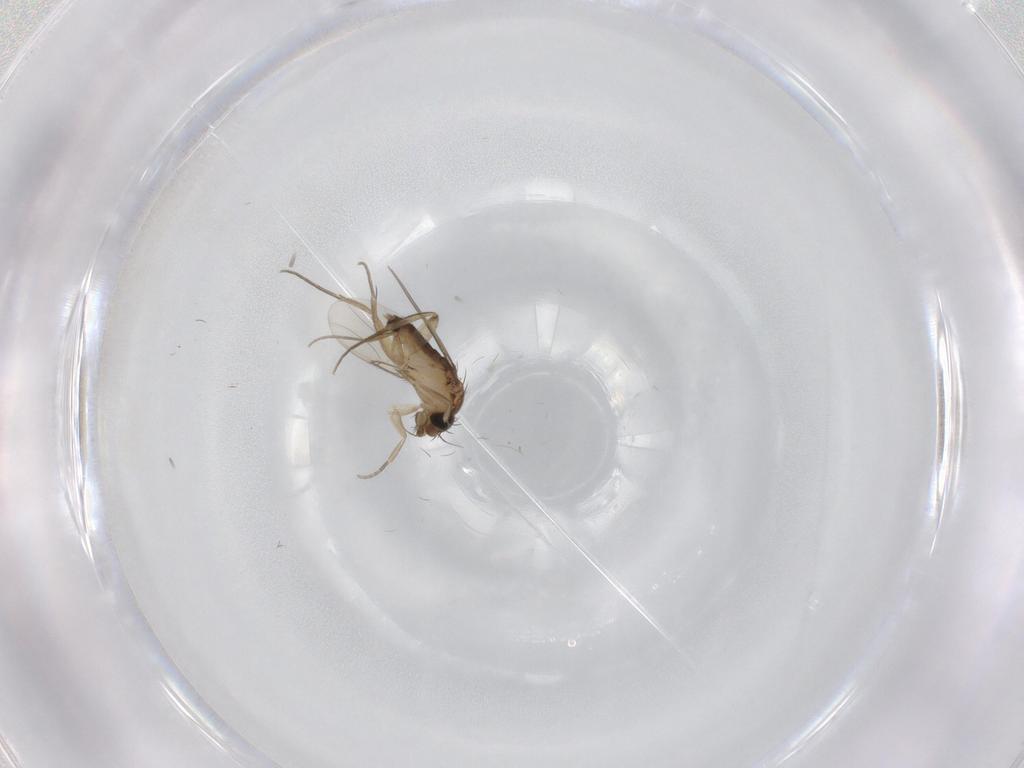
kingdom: Animalia
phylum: Arthropoda
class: Insecta
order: Diptera
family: Phoridae
